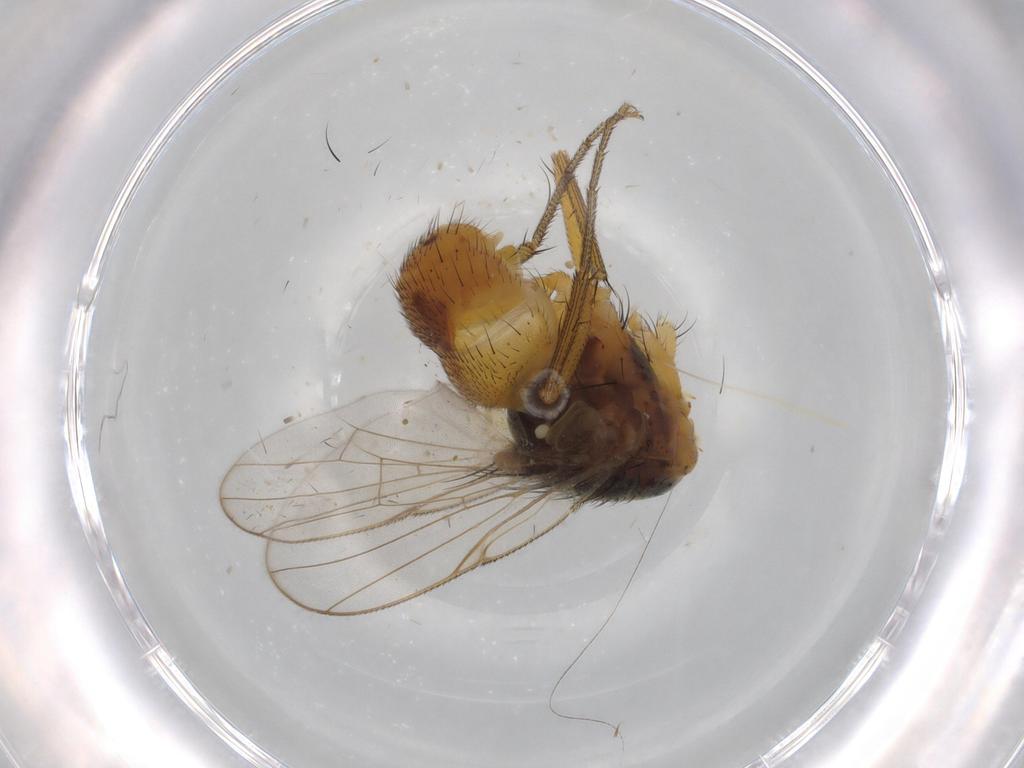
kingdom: Animalia
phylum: Arthropoda
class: Insecta
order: Diptera
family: Muscidae
